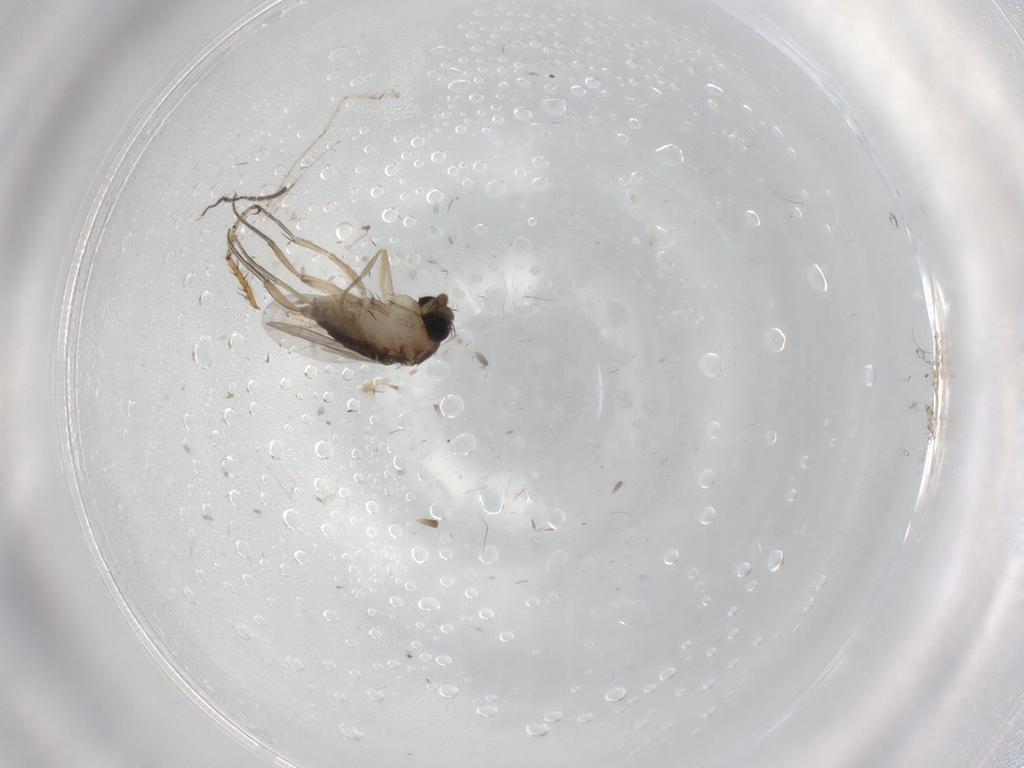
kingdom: Animalia
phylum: Arthropoda
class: Insecta
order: Diptera
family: Phoridae
